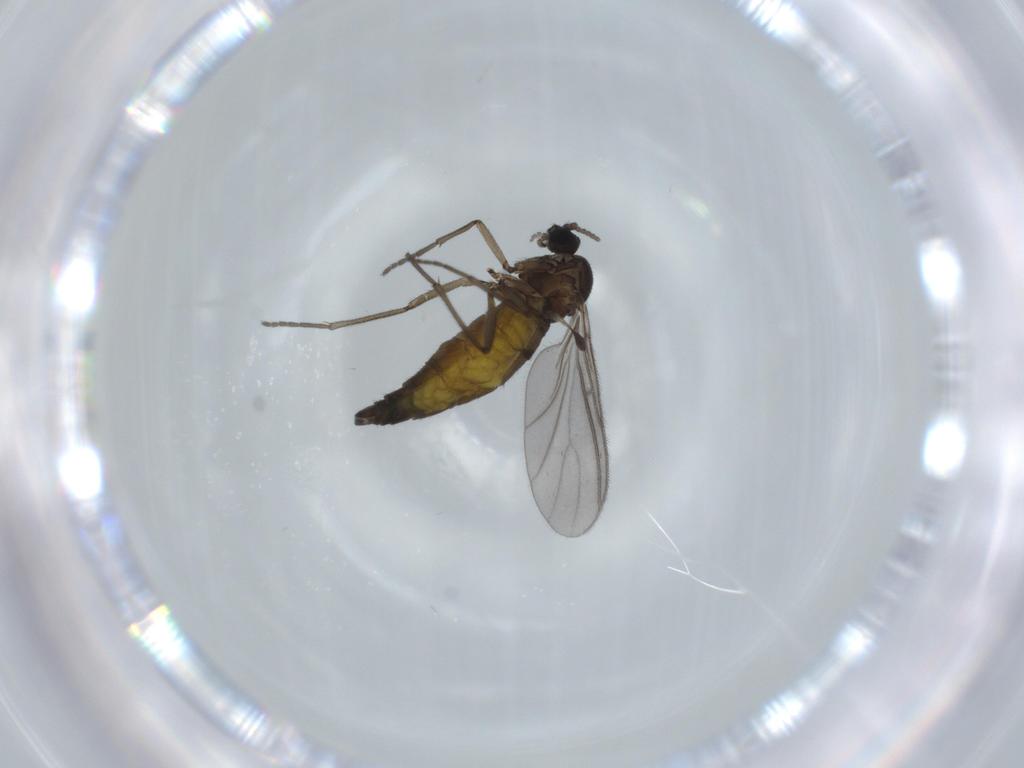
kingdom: Animalia
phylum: Arthropoda
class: Insecta
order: Diptera
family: Sciaridae
